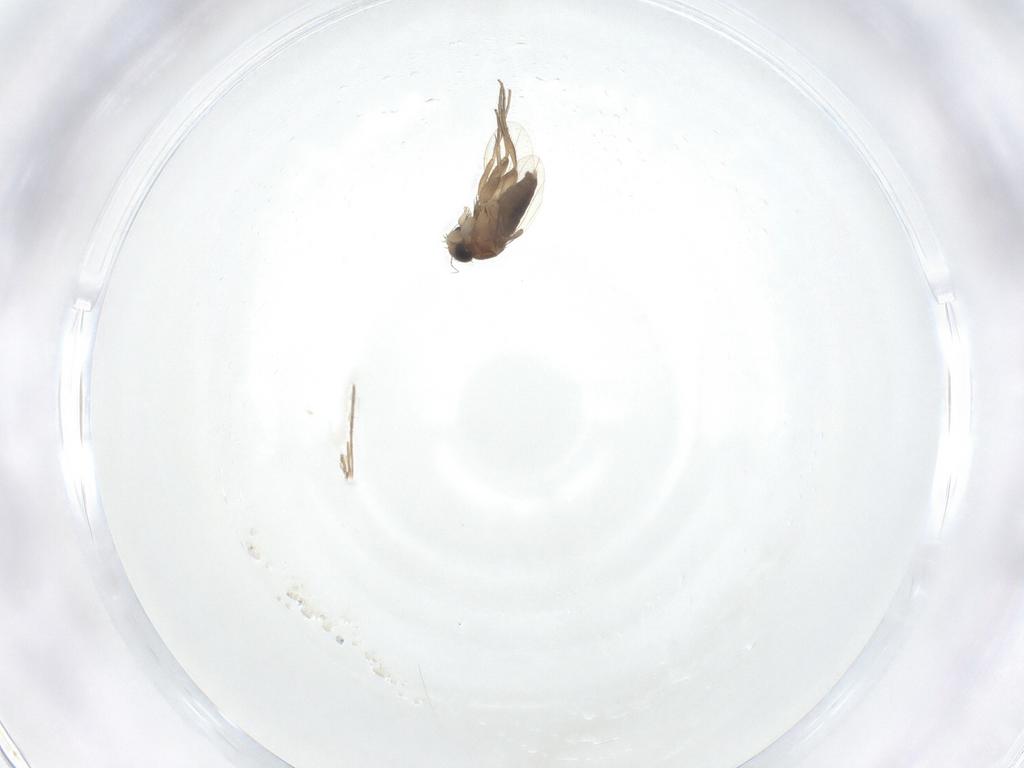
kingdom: Animalia
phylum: Arthropoda
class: Insecta
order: Diptera
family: Phoridae
